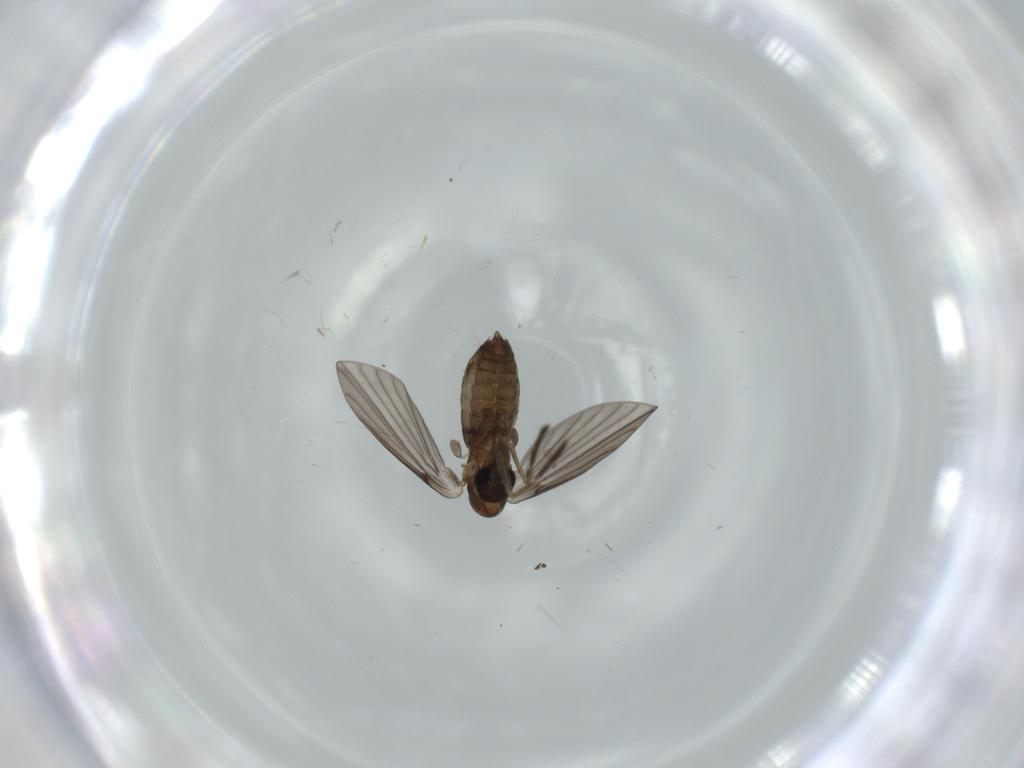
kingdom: Animalia
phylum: Arthropoda
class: Insecta
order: Diptera
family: Psychodidae
